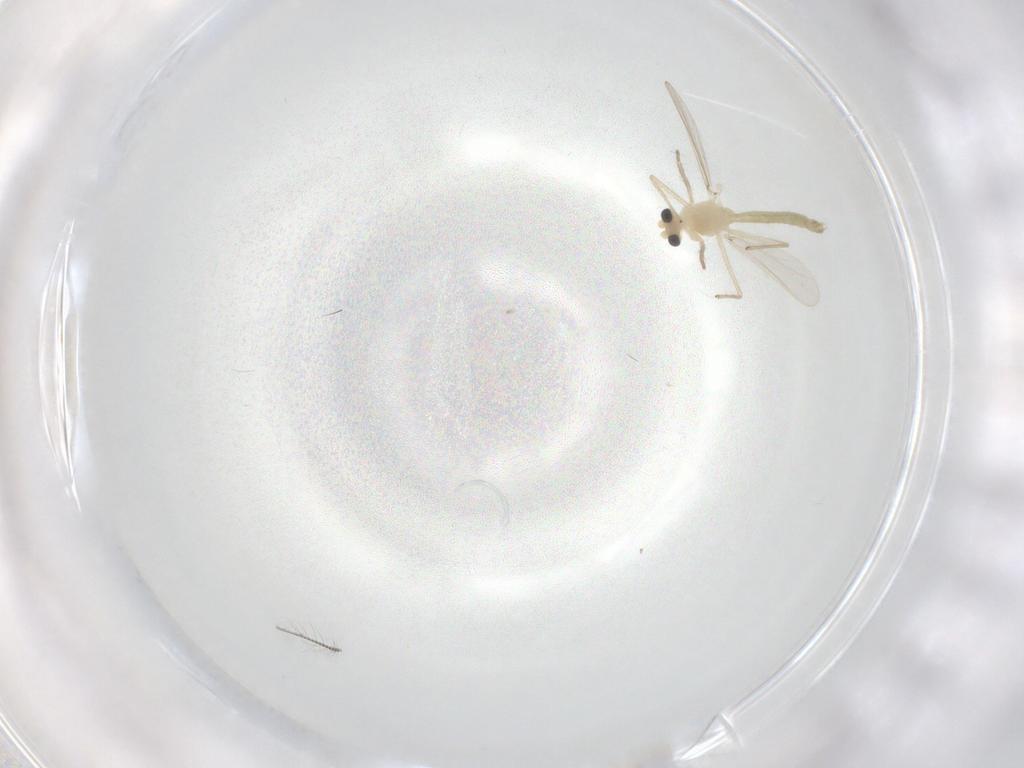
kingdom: Animalia
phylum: Arthropoda
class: Insecta
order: Diptera
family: Chironomidae
